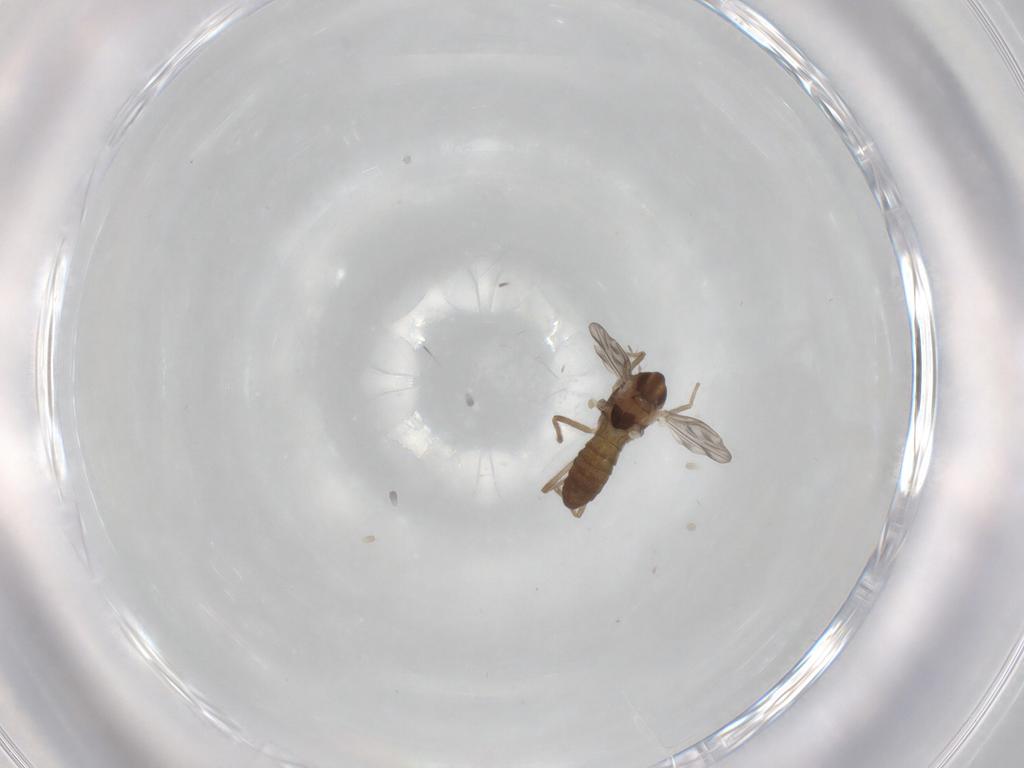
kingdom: Animalia
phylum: Arthropoda
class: Insecta
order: Diptera
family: Chironomidae
